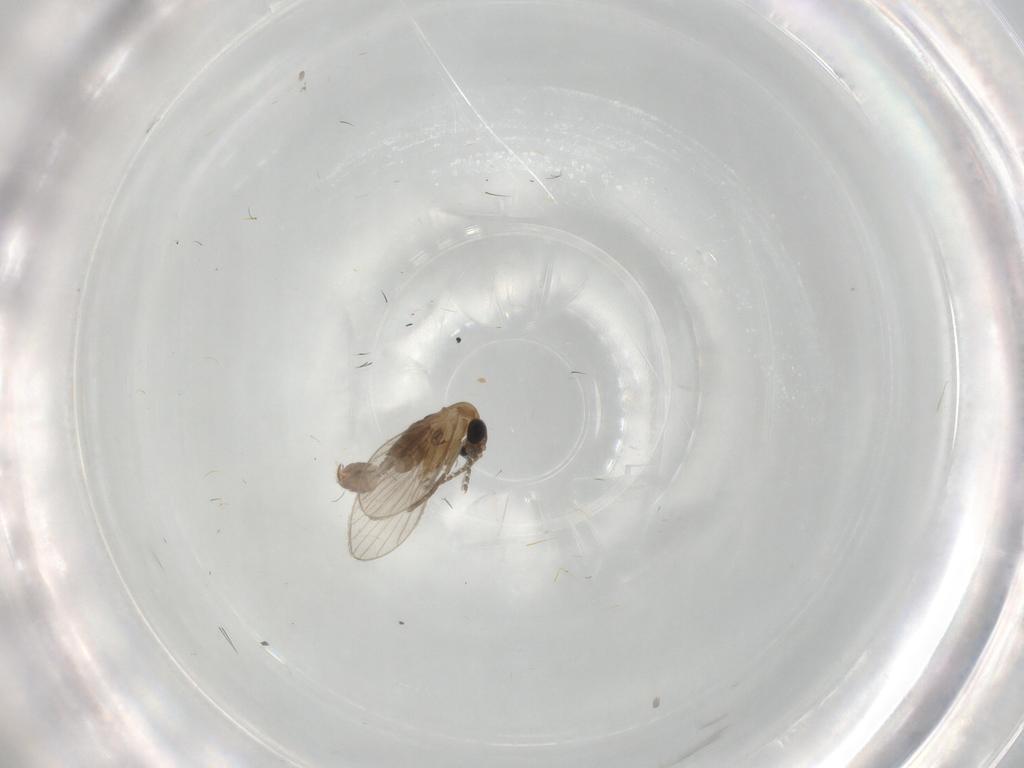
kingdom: Animalia
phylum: Arthropoda
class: Insecta
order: Diptera
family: Limoniidae
